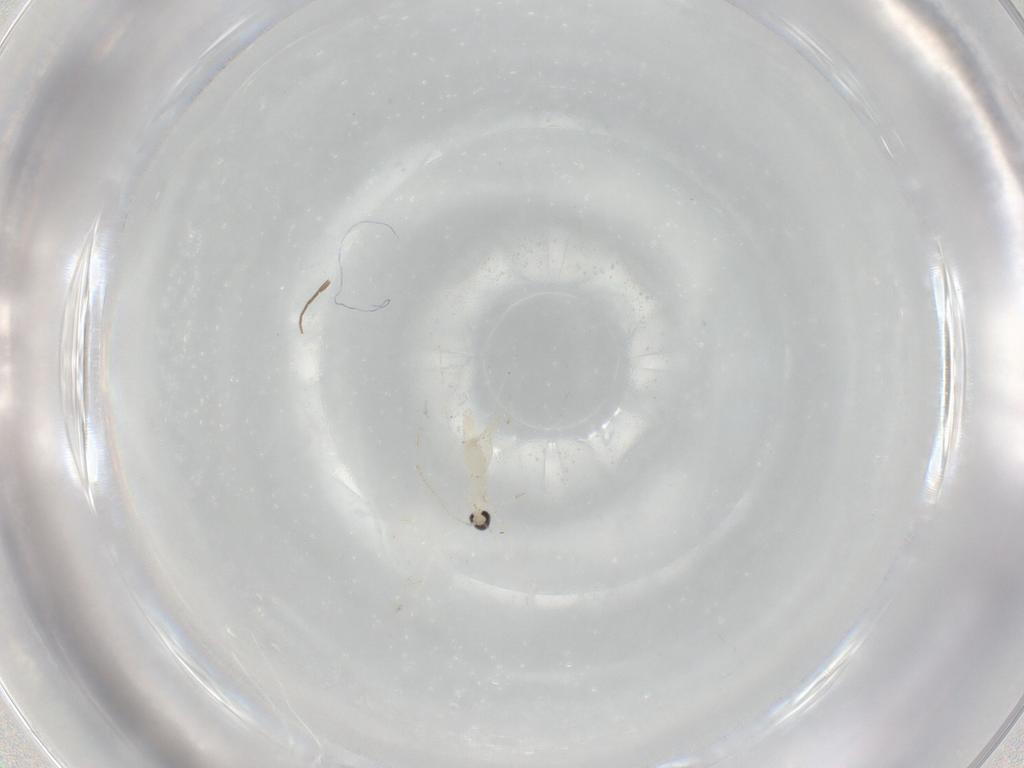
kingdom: Animalia
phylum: Arthropoda
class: Insecta
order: Diptera
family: Cecidomyiidae
